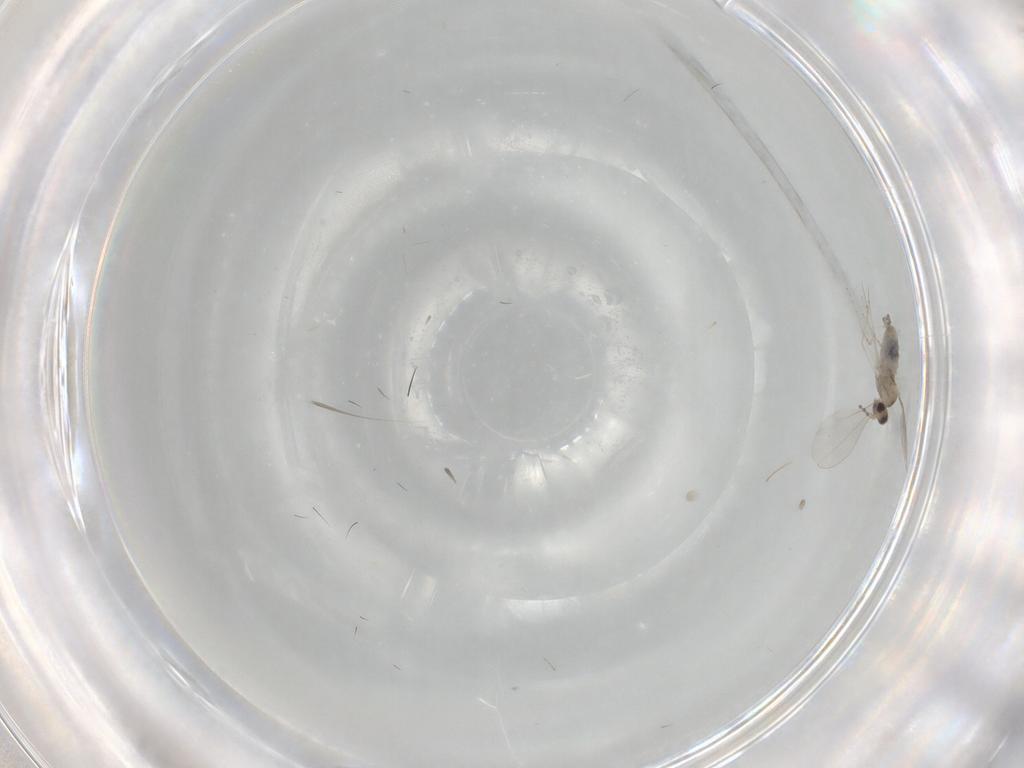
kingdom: Animalia
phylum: Arthropoda
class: Insecta
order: Diptera
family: Cecidomyiidae
